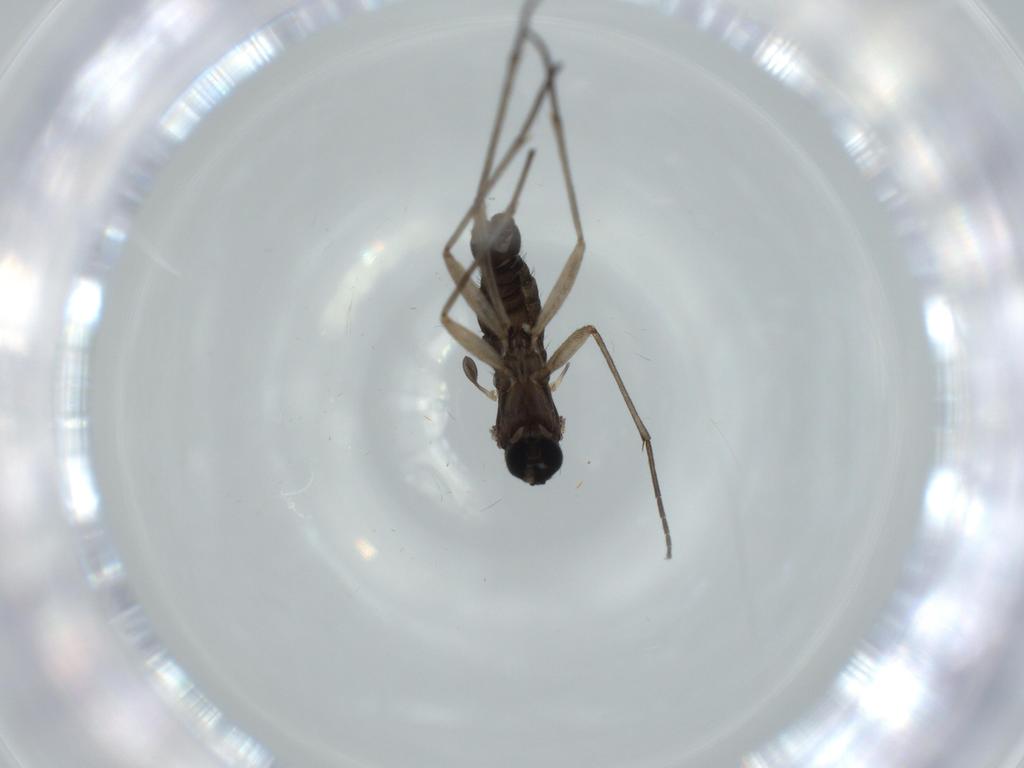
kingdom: Animalia
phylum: Arthropoda
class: Insecta
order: Diptera
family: Sciaridae
